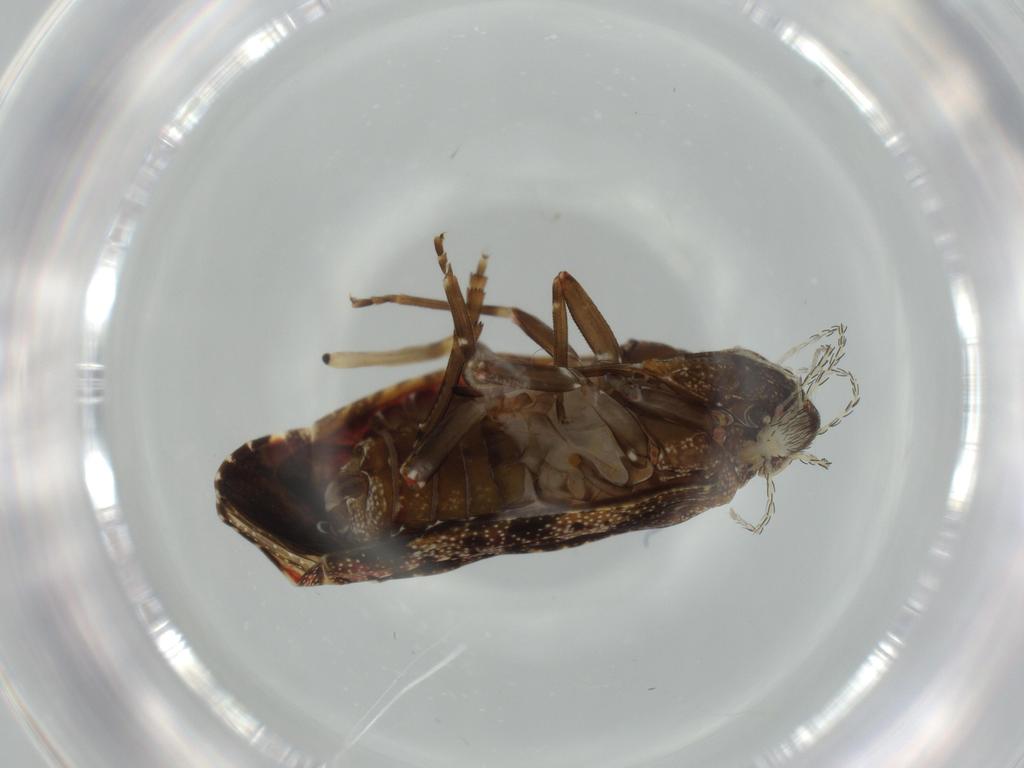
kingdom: Animalia
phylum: Arthropoda
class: Insecta
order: Hemiptera
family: Achilidae
